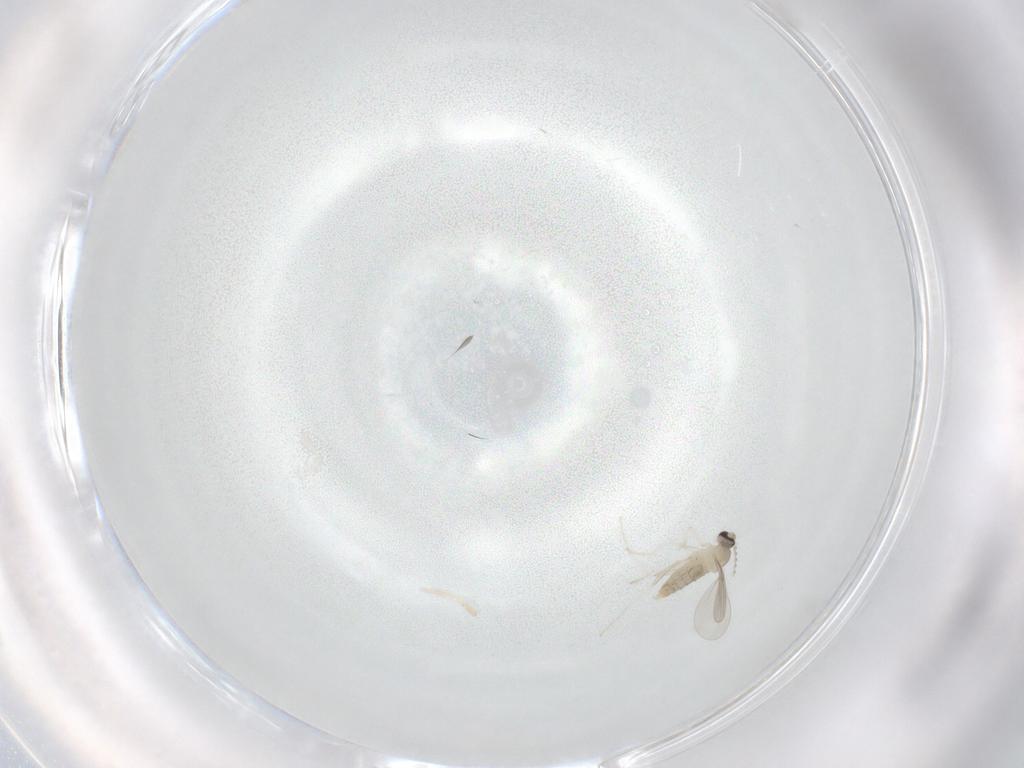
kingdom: Animalia
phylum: Arthropoda
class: Insecta
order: Diptera
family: Cecidomyiidae
